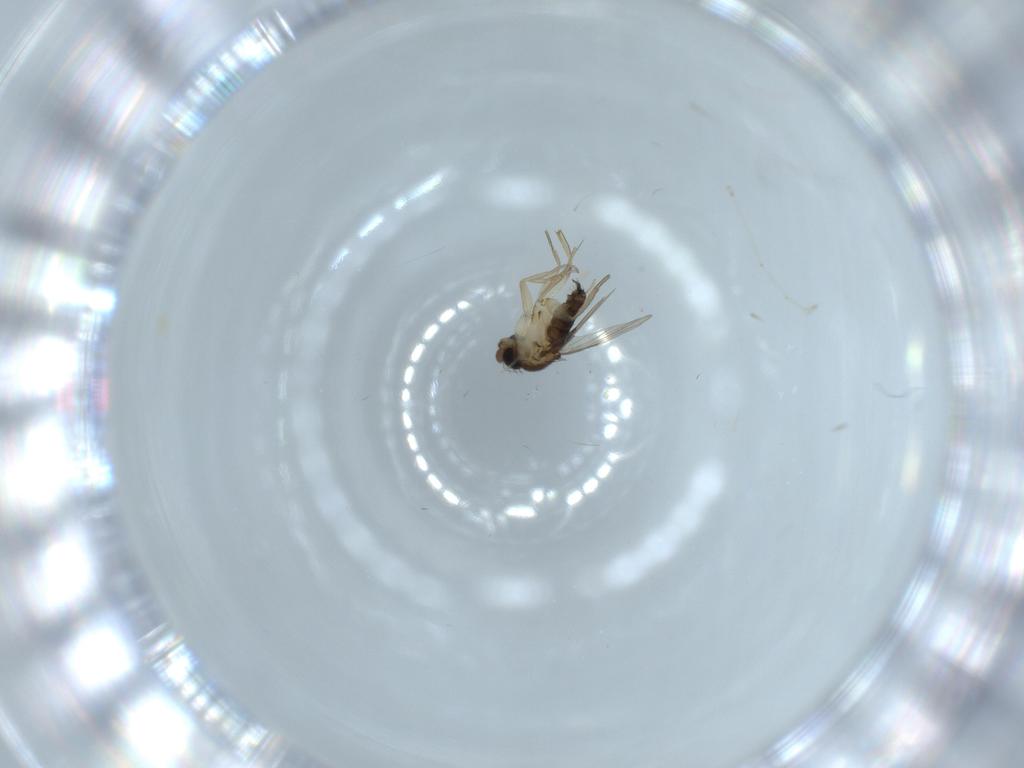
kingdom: Animalia
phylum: Arthropoda
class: Insecta
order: Diptera
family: Phoridae
